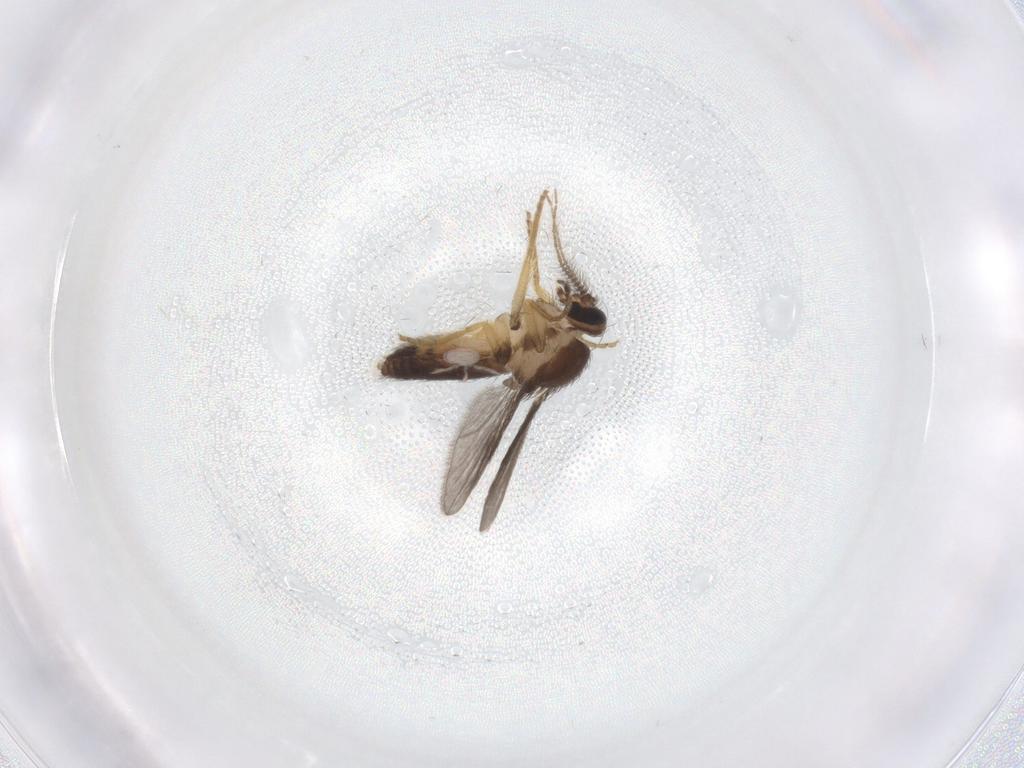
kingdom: Animalia
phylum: Arthropoda
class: Insecta
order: Diptera
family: Ceratopogonidae
